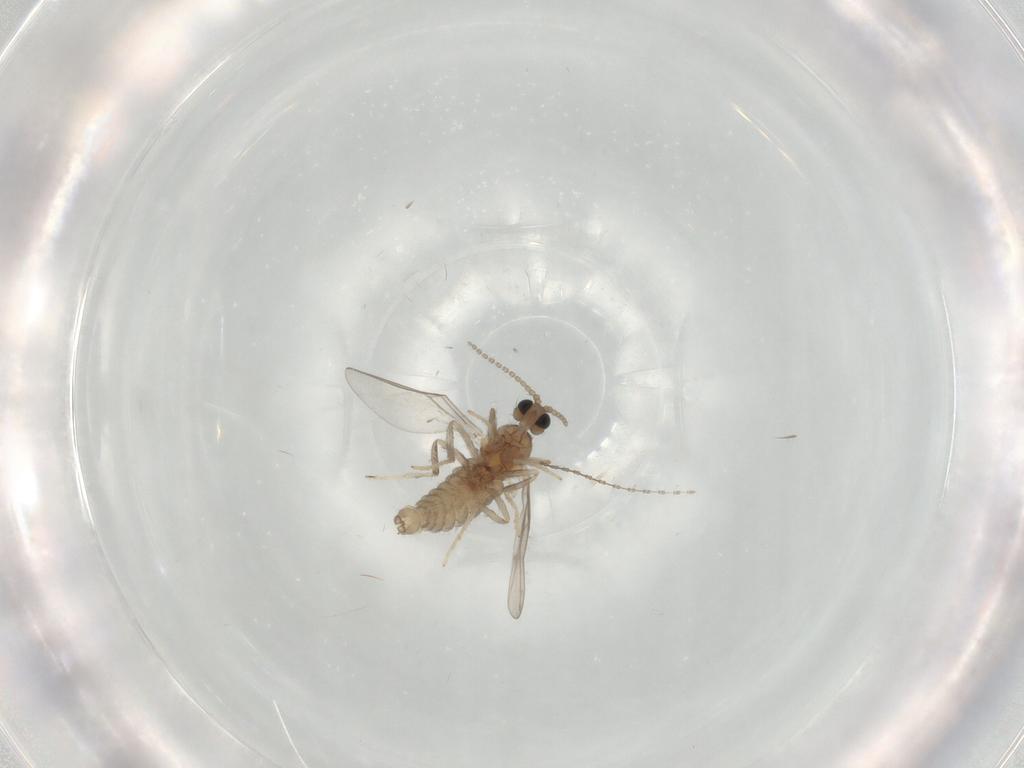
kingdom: Animalia
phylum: Arthropoda
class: Insecta
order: Diptera
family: Cecidomyiidae
